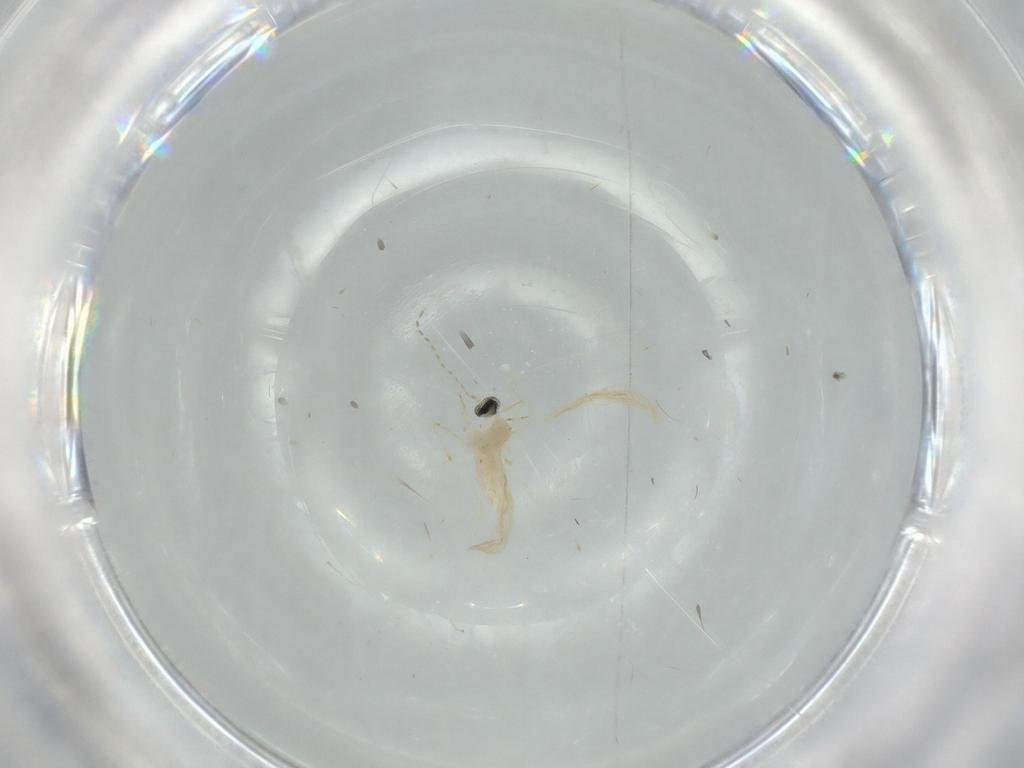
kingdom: Animalia
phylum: Arthropoda
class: Insecta
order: Diptera
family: Cecidomyiidae
